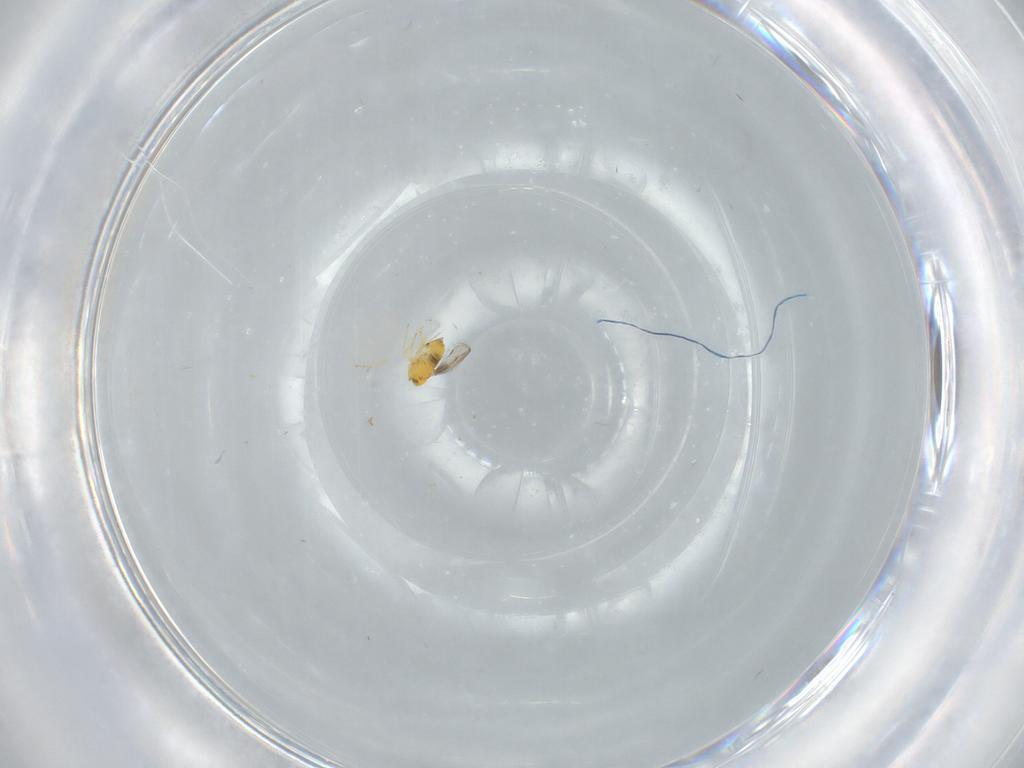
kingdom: Animalia
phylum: Arthropoda
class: Insecta
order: Hymenoptera
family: Trichogrammatidae
